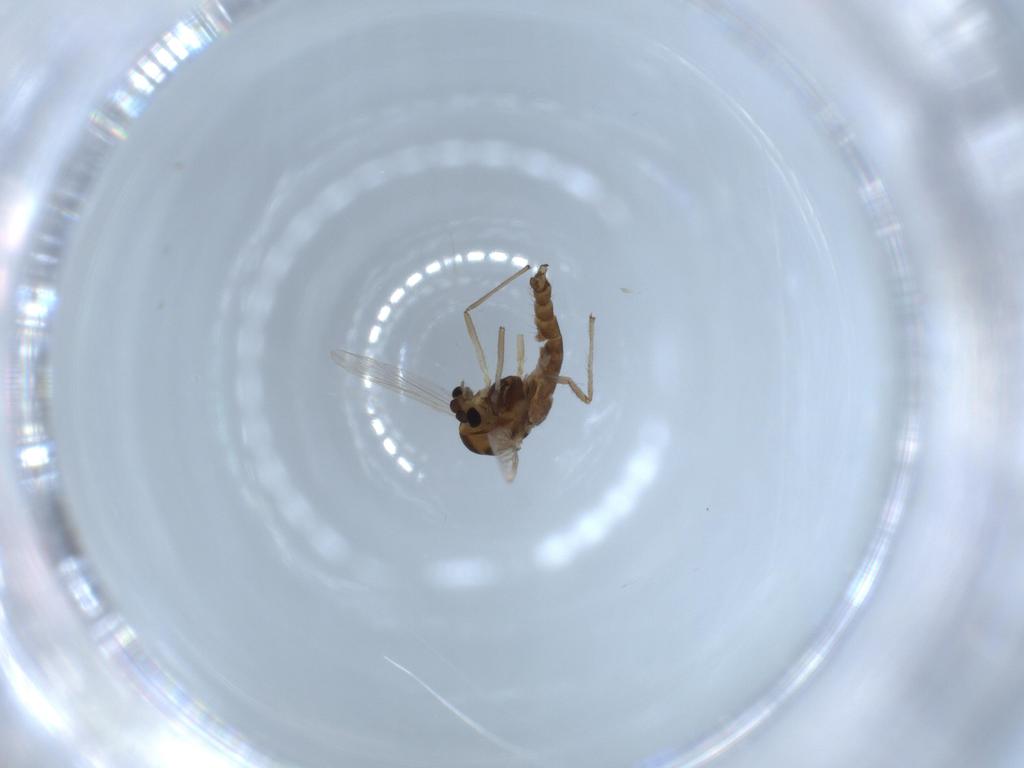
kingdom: Animalia
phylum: Arthropoda
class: Insecta
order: Diptera
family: Chironomidae
